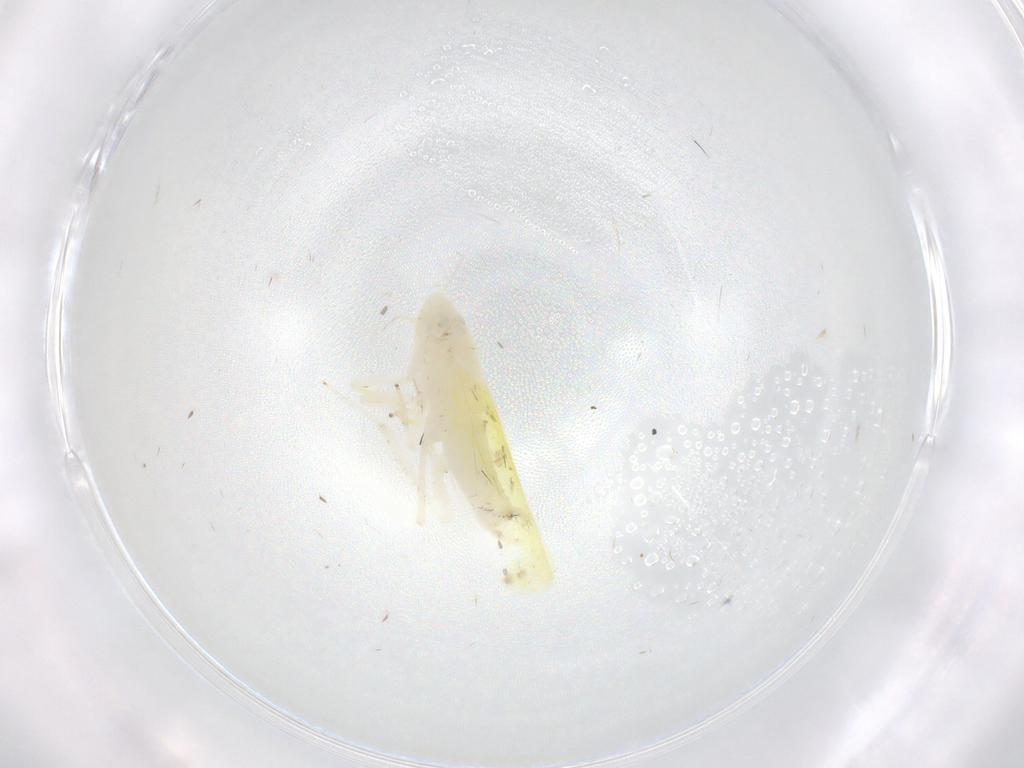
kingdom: Animalia
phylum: Arthropoda
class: Insecta
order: Hemiptera
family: Cicadellidae
